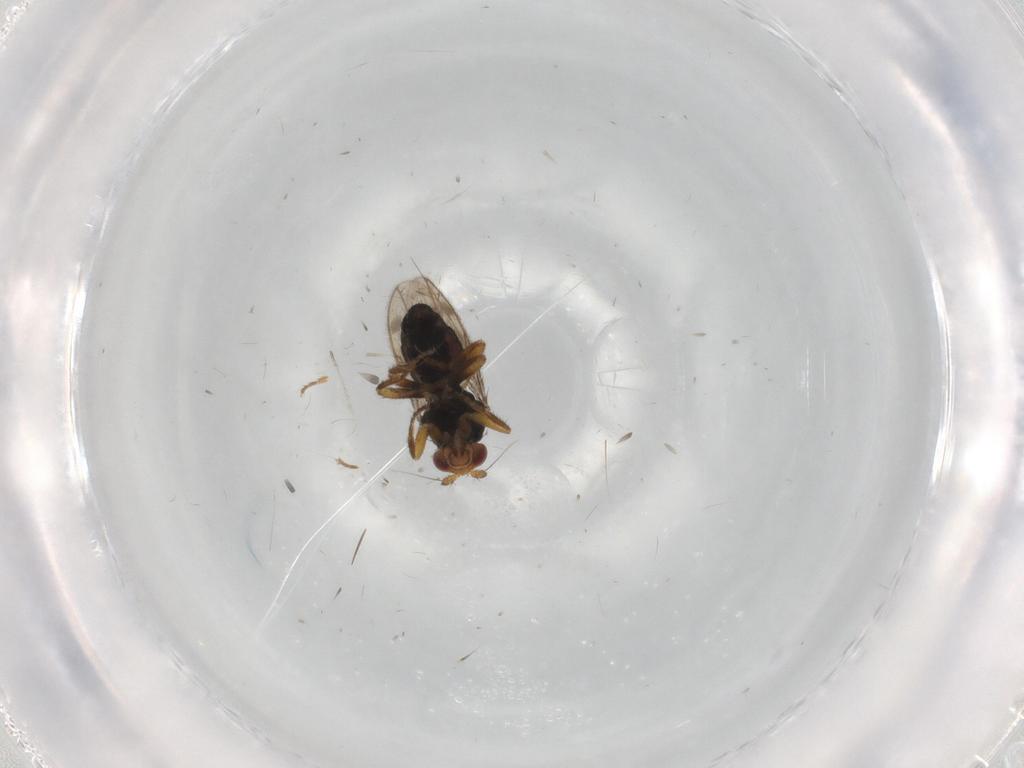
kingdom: Animalia
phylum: Arthropoda
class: Insecta
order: Diptera
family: Sphaeroceridae
